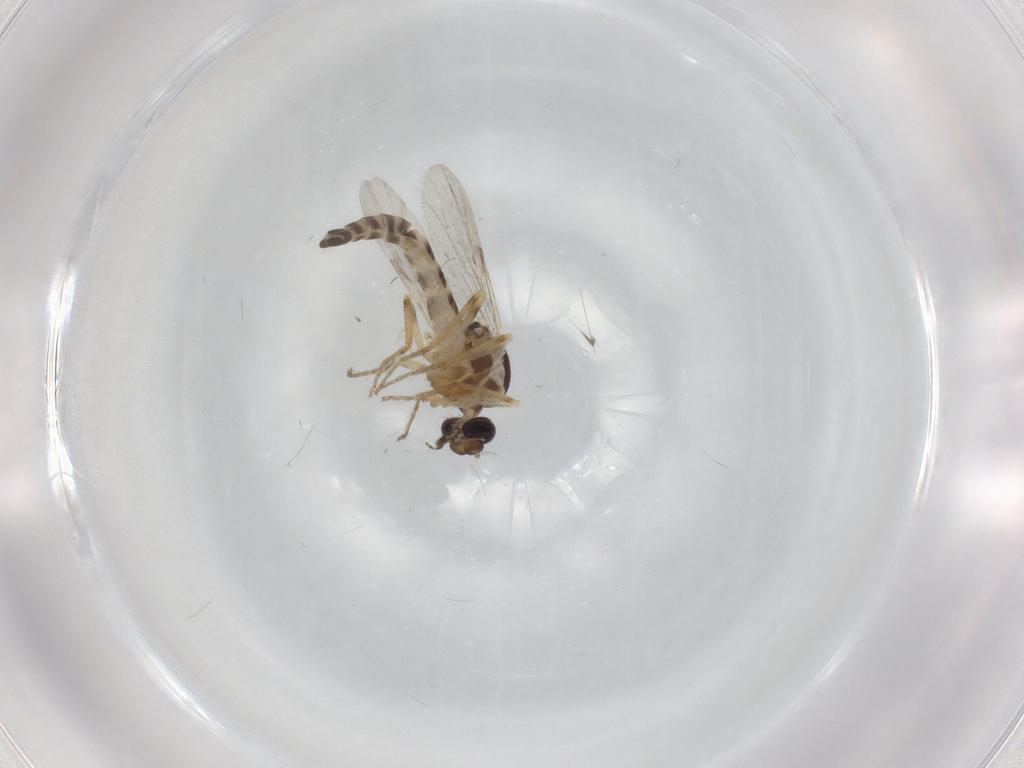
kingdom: Animalia
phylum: Arthropoda
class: Insecta
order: Diptera
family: Ceratopogonidae
